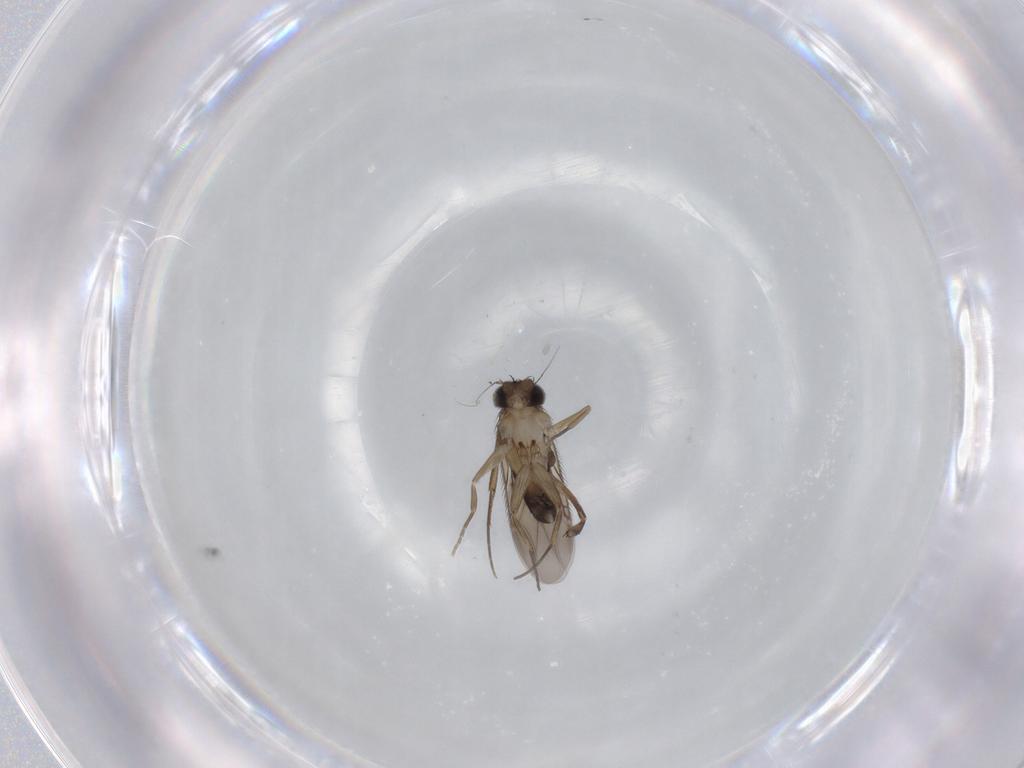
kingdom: Animalia
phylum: Arthropoda
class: Insecta
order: Diptera
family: Phoridae
